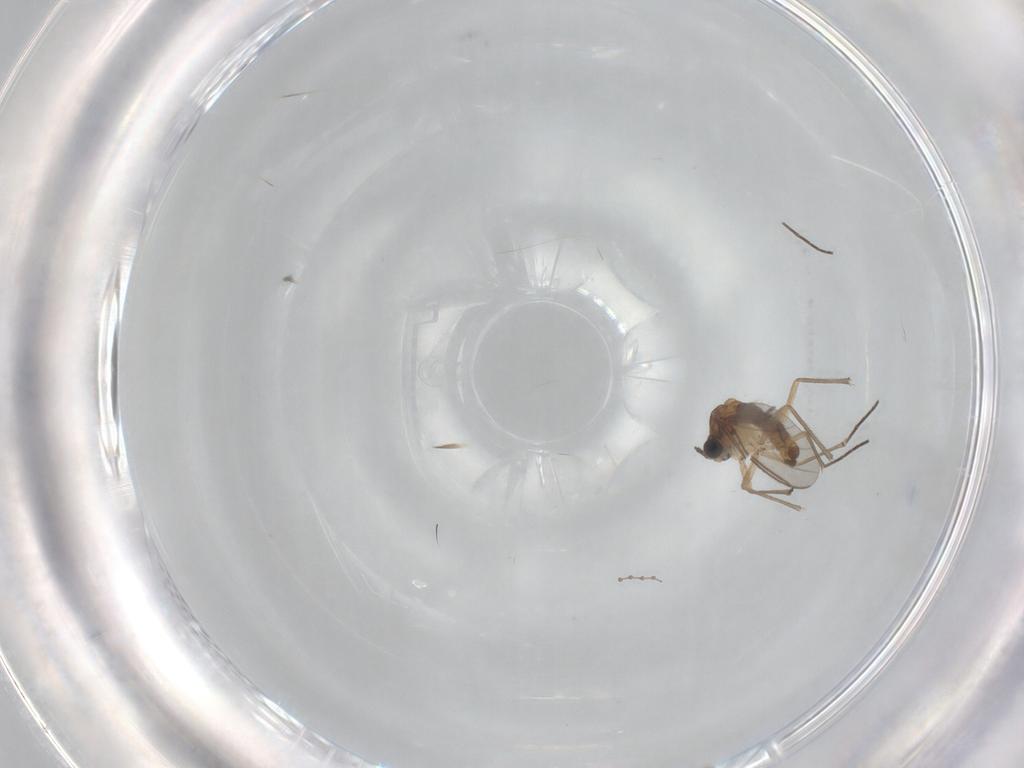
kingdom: Animalia
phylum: Arthropoda
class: Insecta
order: Diptera
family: Sciaridae
